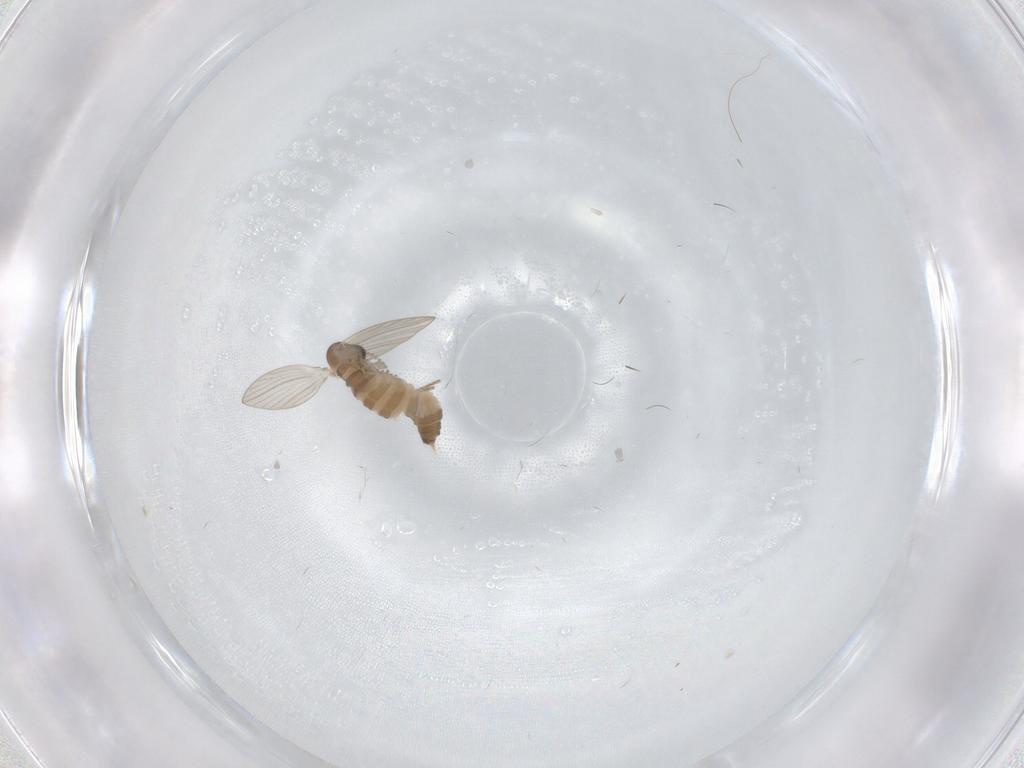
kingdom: Animalia
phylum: Arthropoda
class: Insecta
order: Diptera
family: Psychodidae
